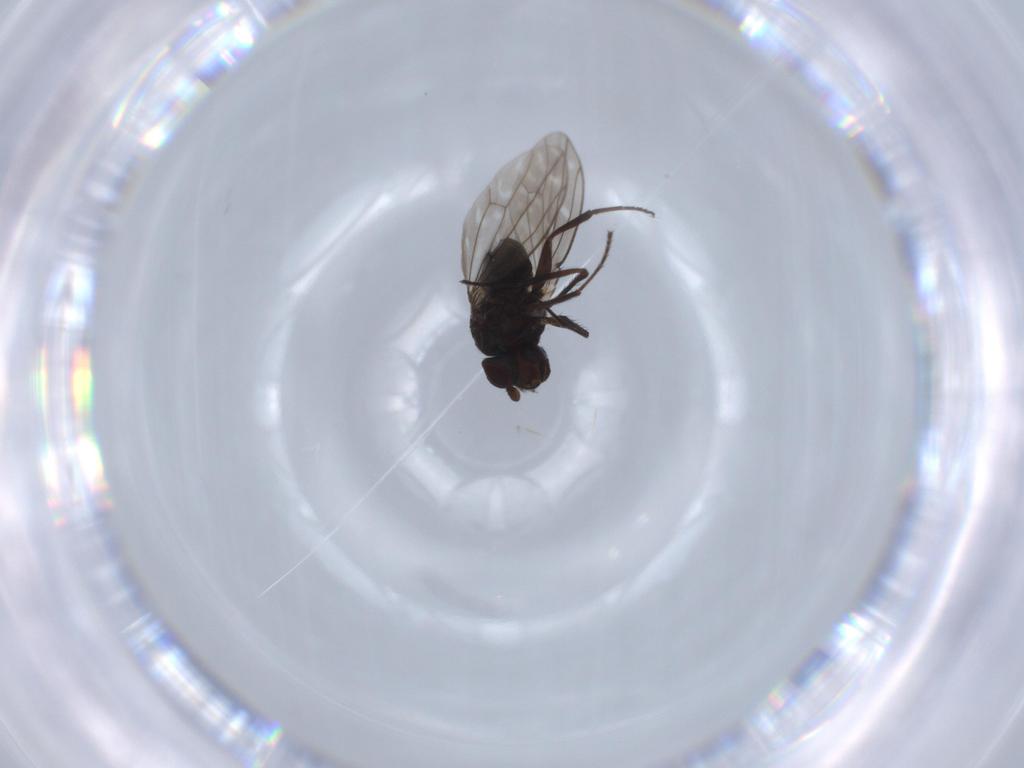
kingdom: Animalia
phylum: Arthropoda
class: Insecta
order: Diptera
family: Ephydridae
